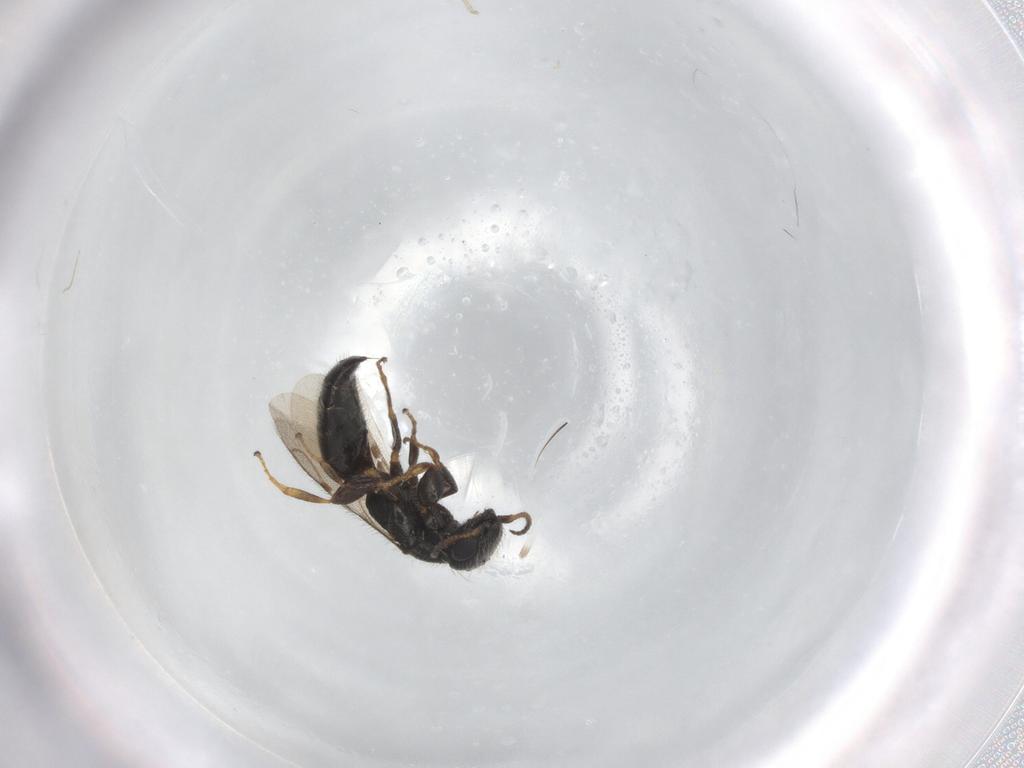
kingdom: Animalia
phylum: Arthropoda
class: Insecta
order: Hymenoptera
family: Bethylidae
